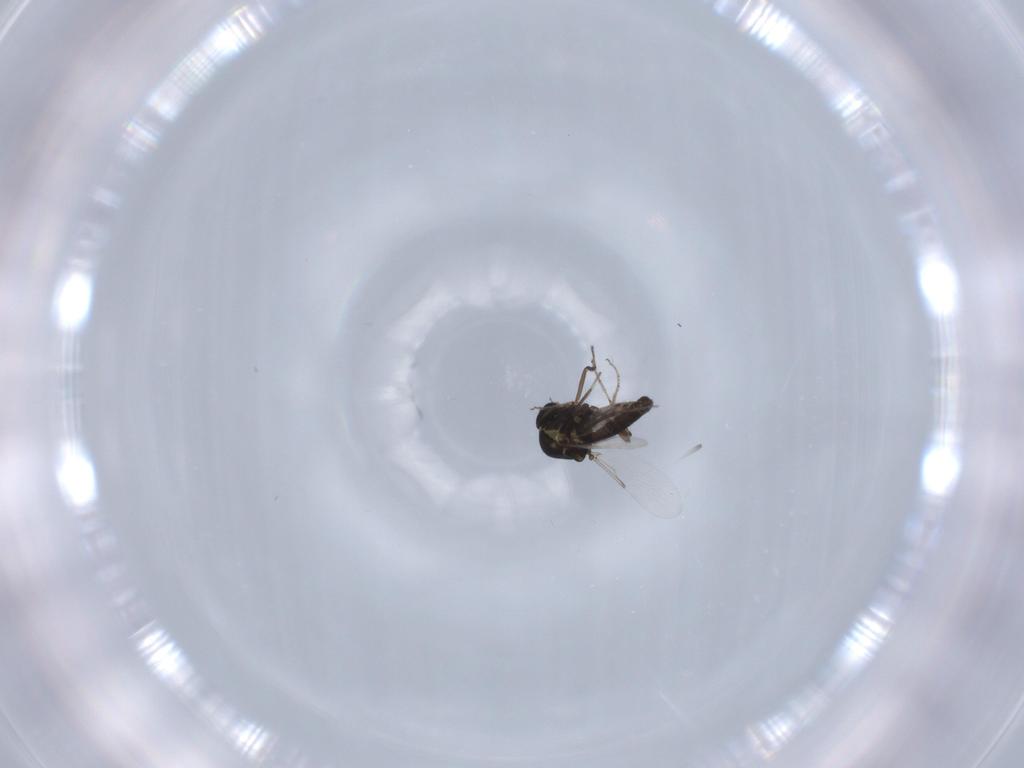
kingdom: Animalia
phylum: Arthropoda
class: Insecta
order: Diptera
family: Ceratopogonidae
